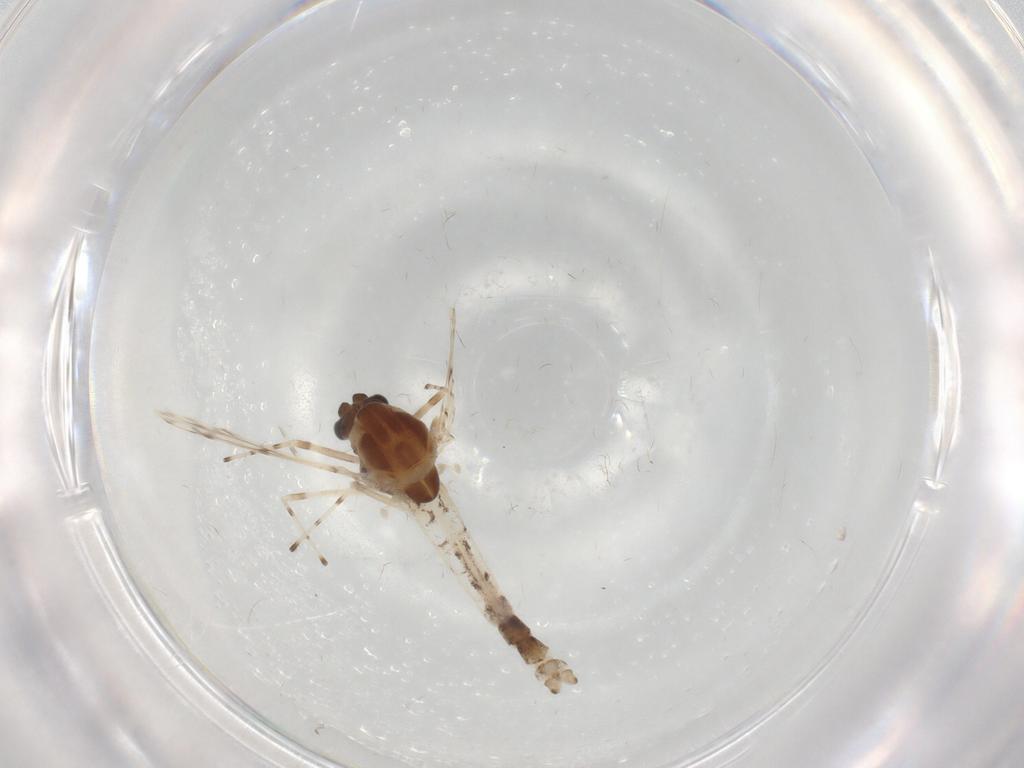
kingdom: Animalia
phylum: Arthropoda
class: Insecta
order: Diptera
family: Chironomidae
